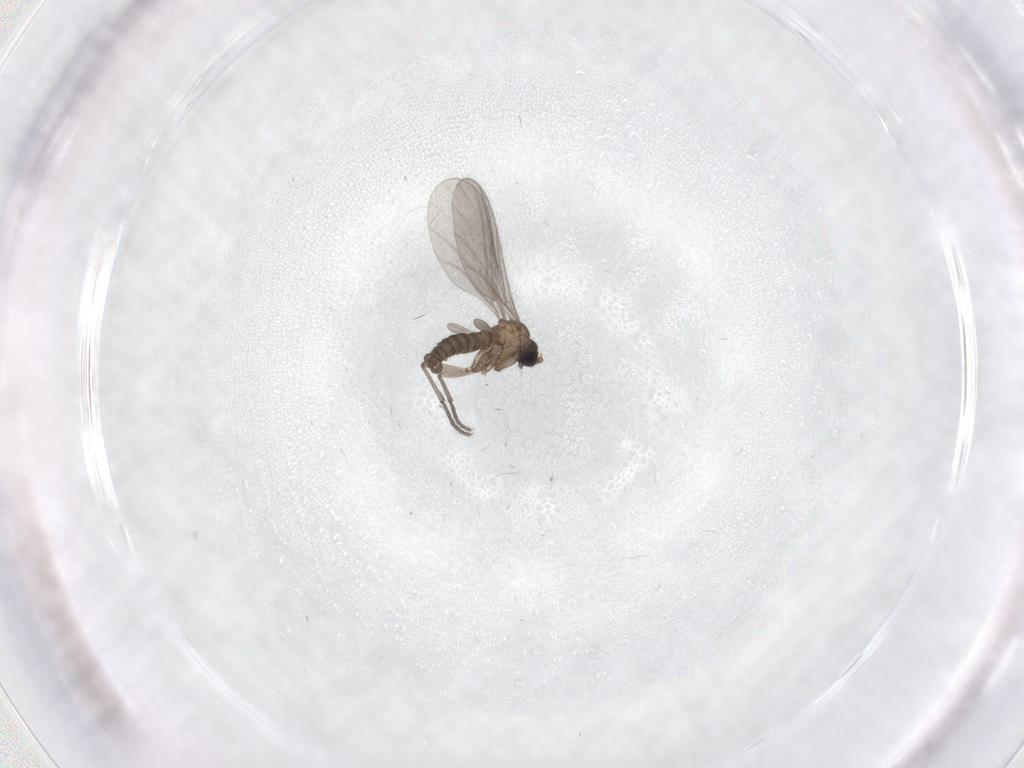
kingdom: Animalia
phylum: Arthropoda
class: Insecta
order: Diptera
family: Sciaridae
